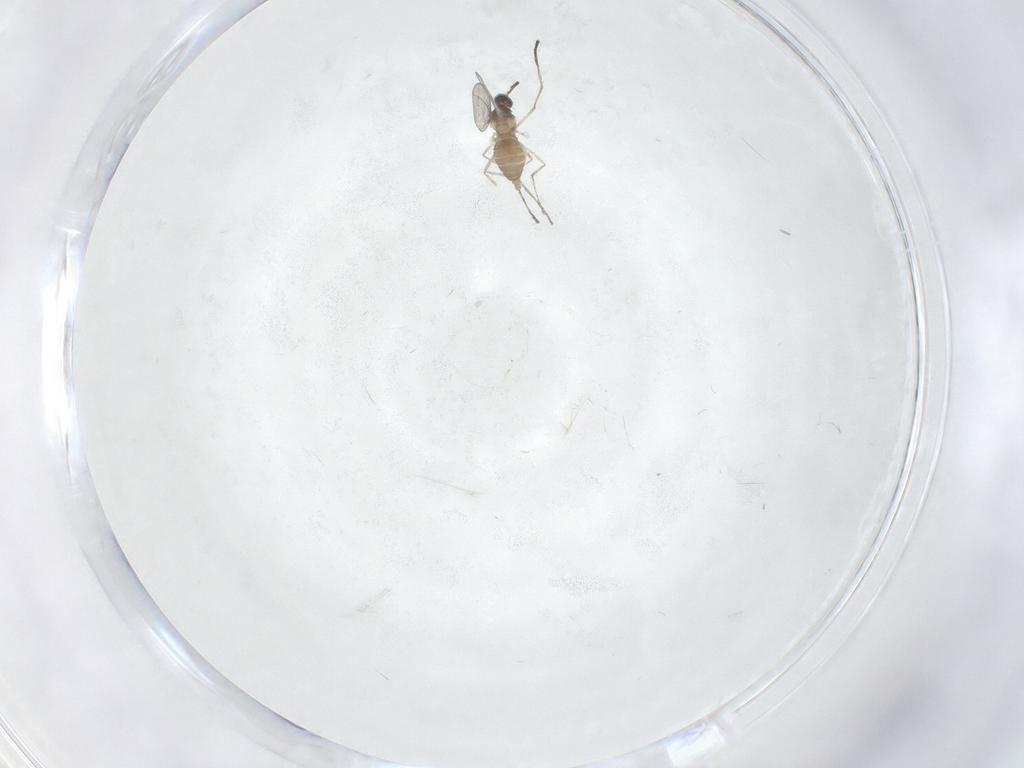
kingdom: Animalia
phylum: Arthropoda
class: Insecta
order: Diptera
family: Cecidomyiidae
